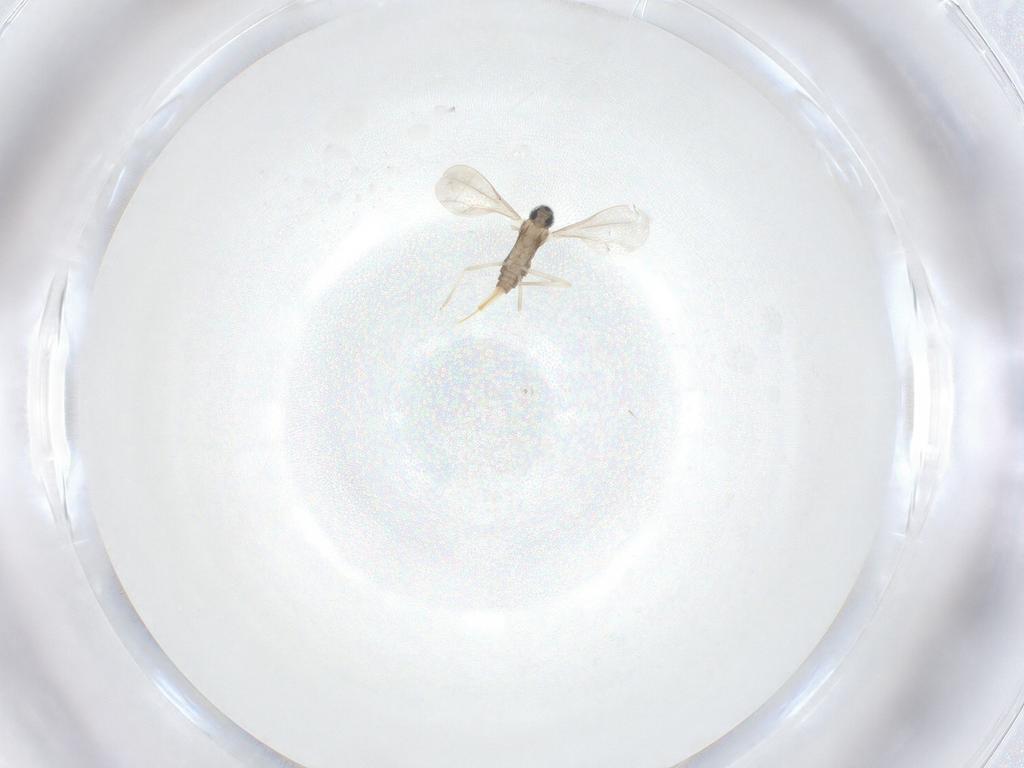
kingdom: Animalia
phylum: Arthropoda
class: Insecta
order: Diptera
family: Cecidomyiidae
